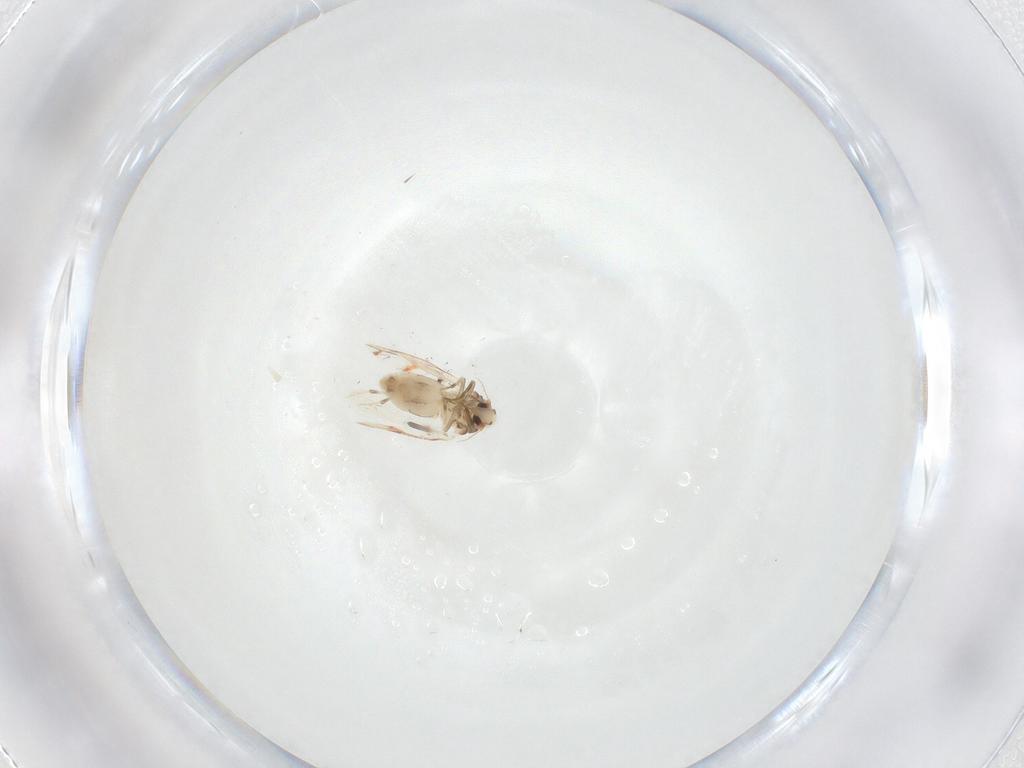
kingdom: Animalia
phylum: Arthropoda
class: Insecta
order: Hemiptera
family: Aleyrodidae
